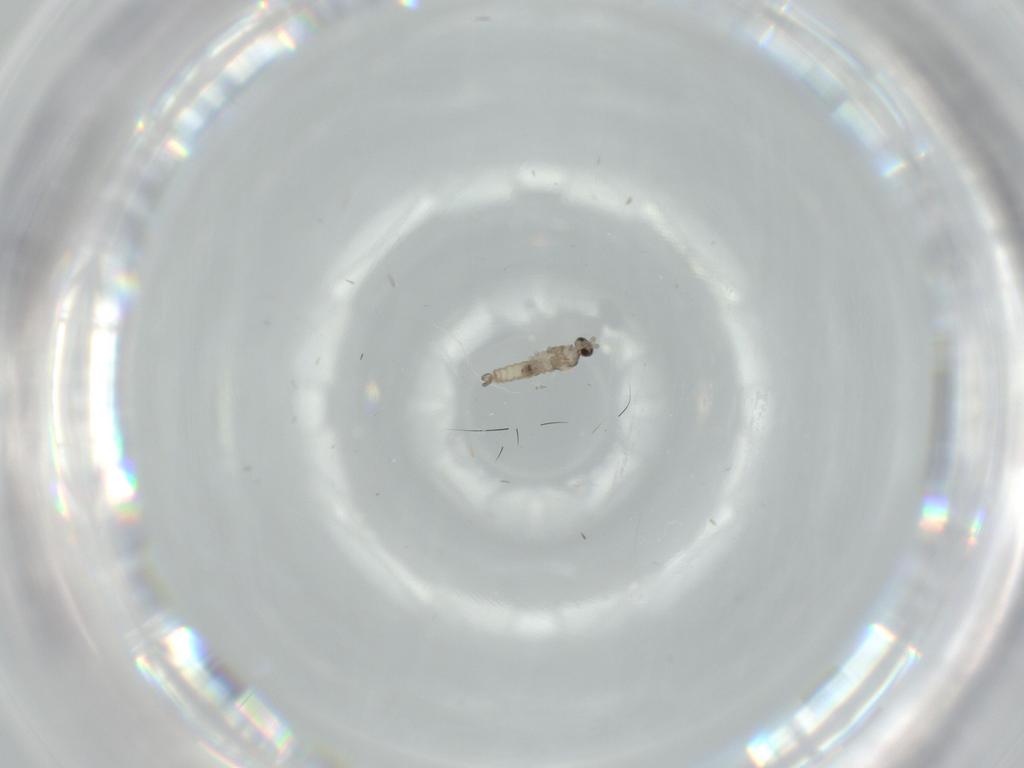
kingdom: Animalia
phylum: Arthropoda
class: Insecta
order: Diptera
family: Cecidomyiidae
